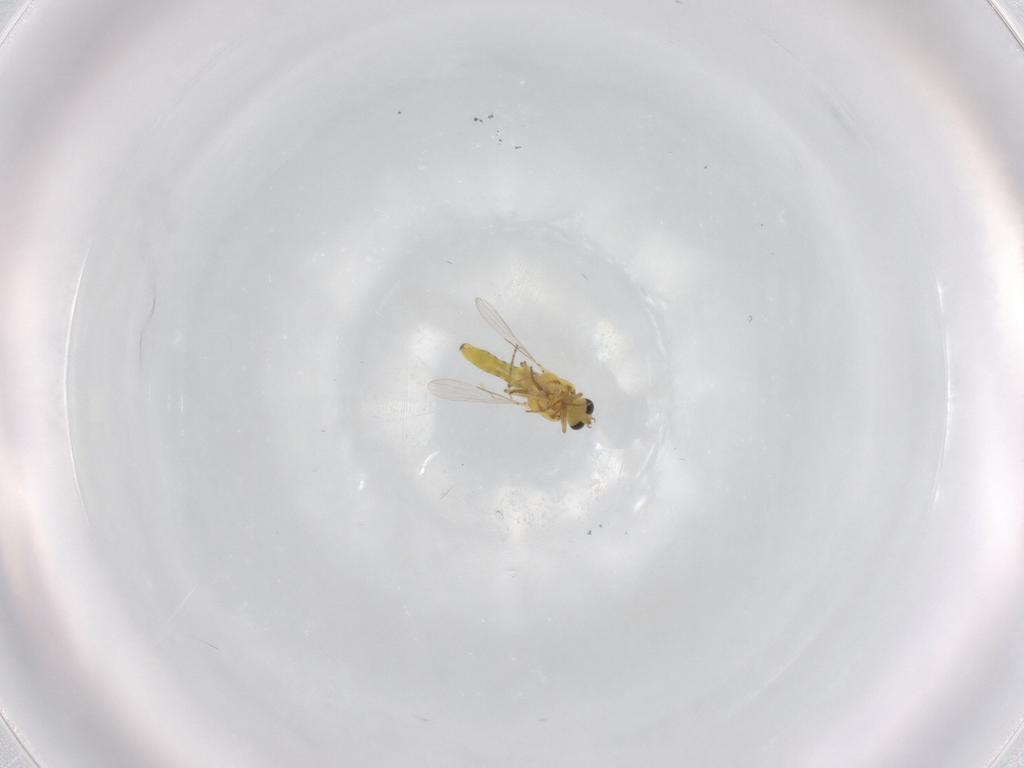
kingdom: Animalia
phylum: Arthropoda
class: Insecta
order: Diptera
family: Ceratopogonidae
